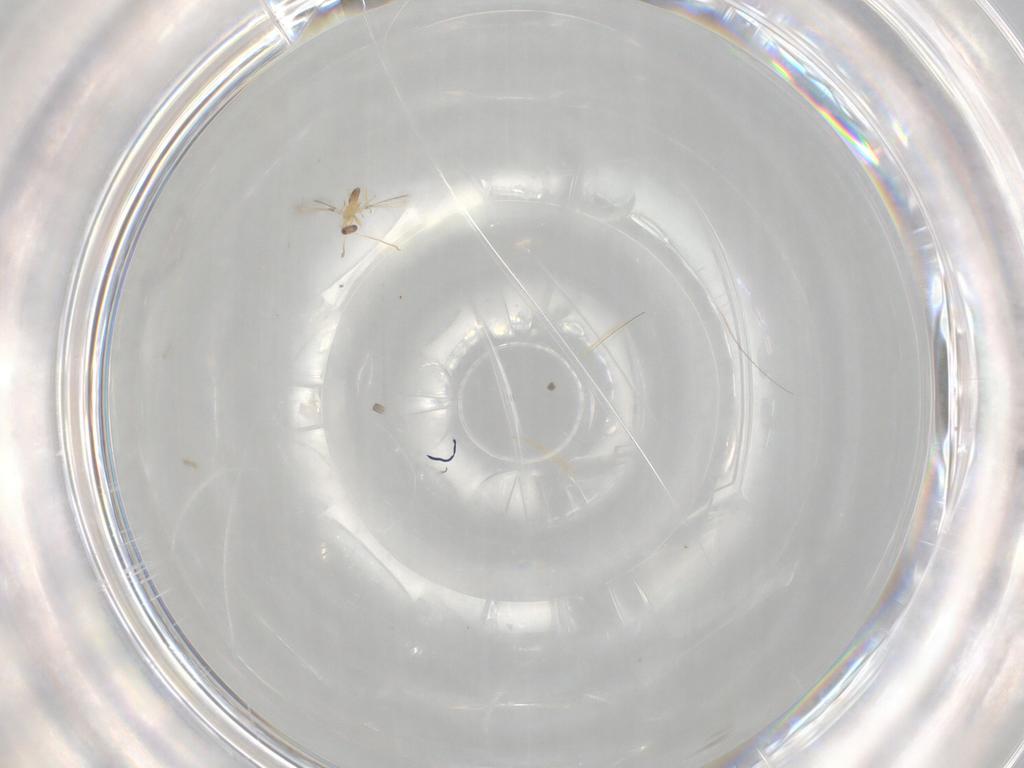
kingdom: Animalia
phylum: Arthropoda
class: Insecta
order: Hymenoptera
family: Mymaridae
